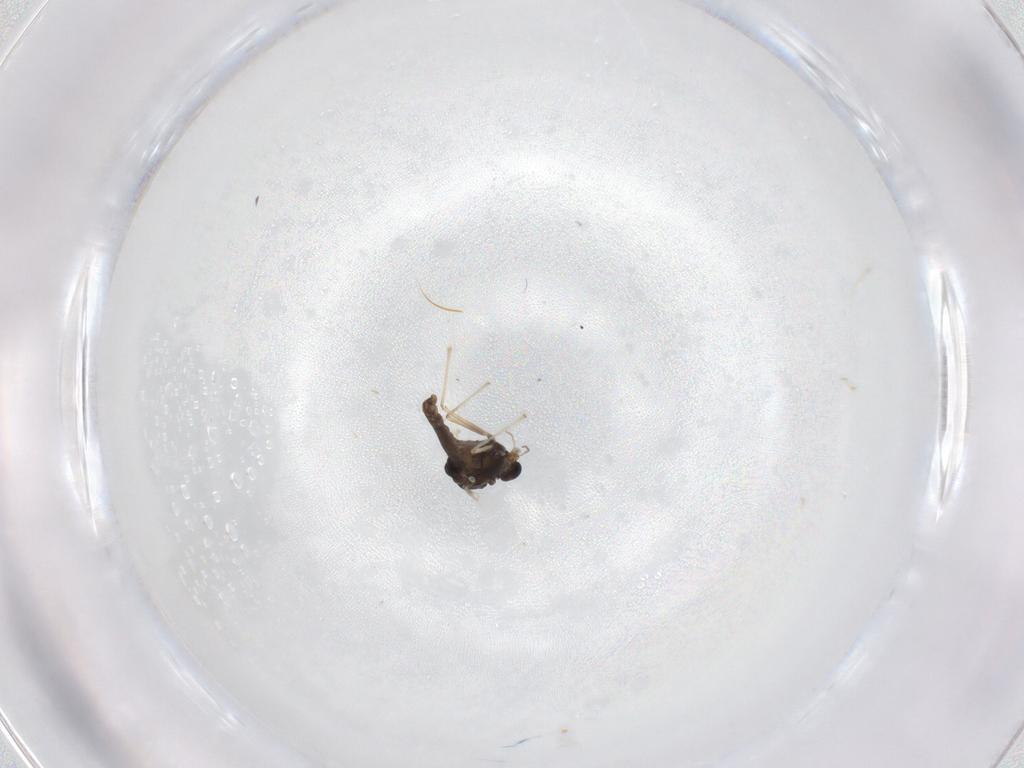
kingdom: Animalia
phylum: Arthropoda
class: Insecta
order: Diptera
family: Chironomidae
